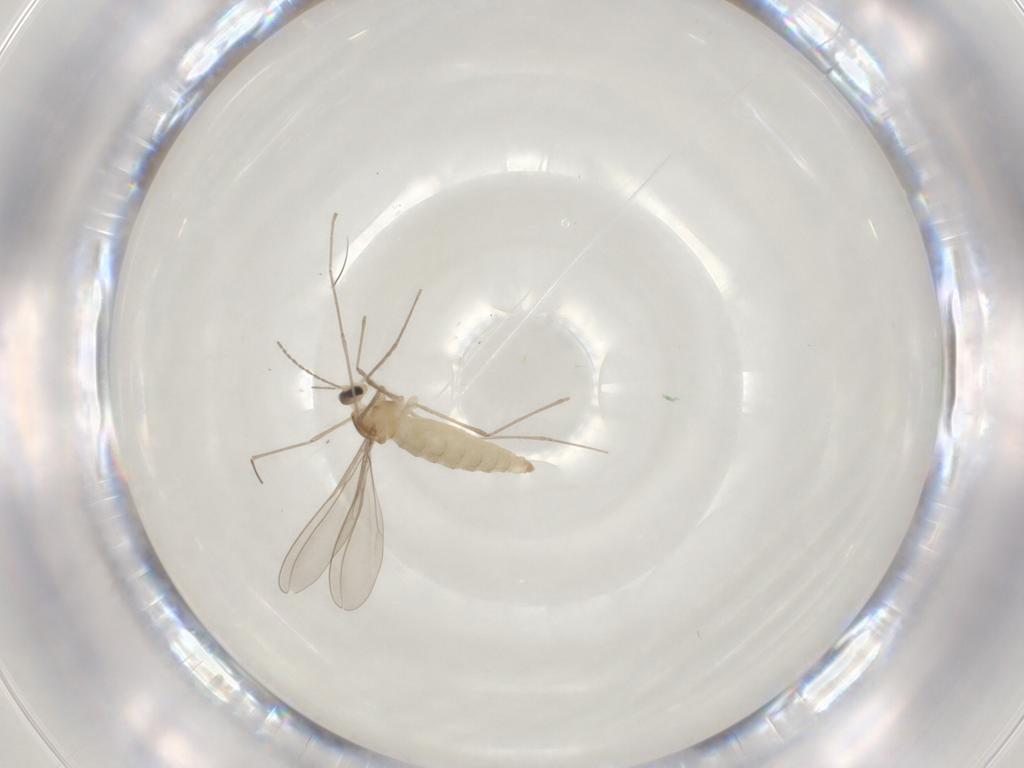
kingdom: Animalia
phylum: Arthropoda
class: Insecta
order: Diptera
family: Cecidomyiidae
